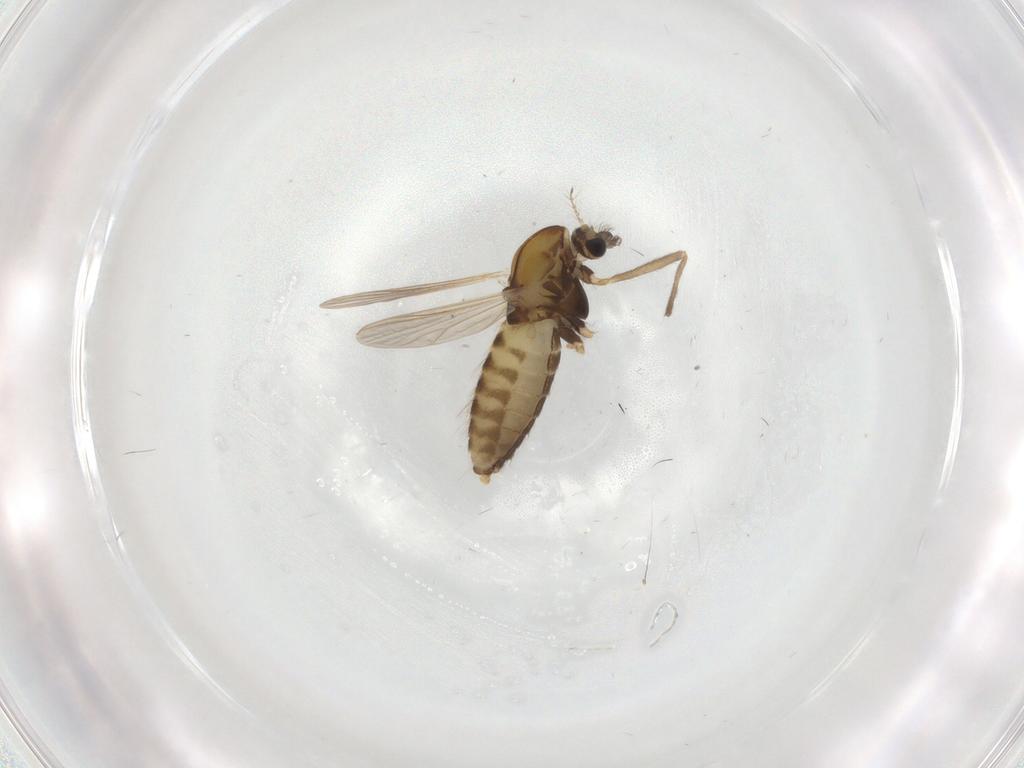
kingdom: Animalia
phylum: Arthropoda
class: Insecta
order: Diptera
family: Chironomidae
